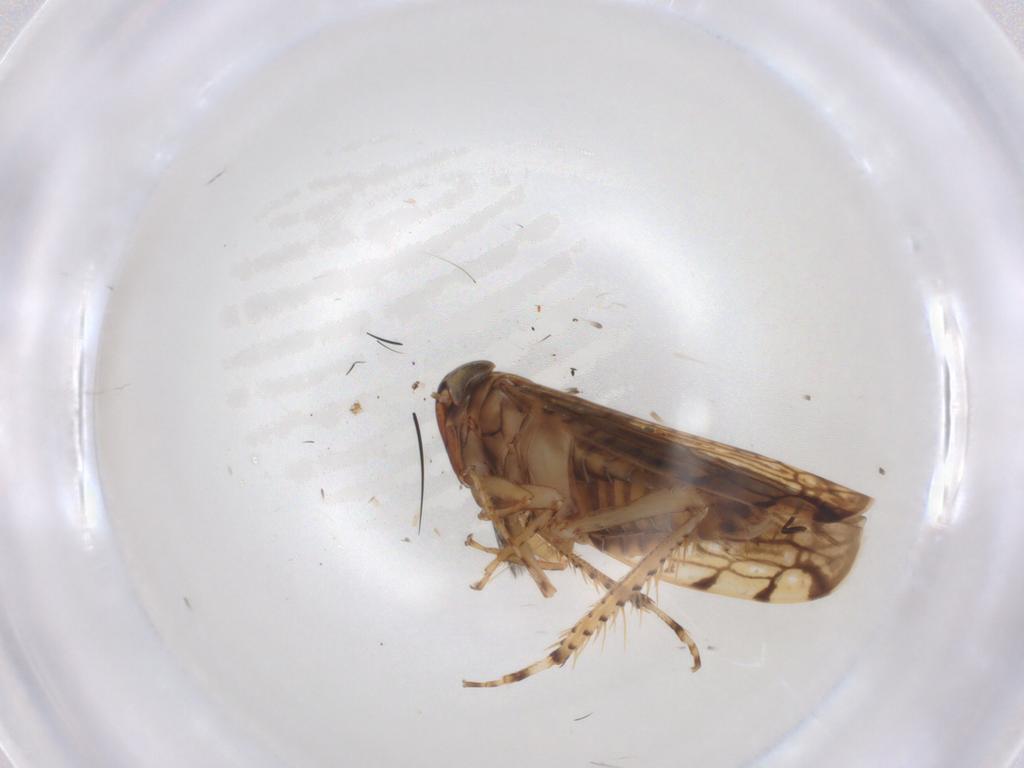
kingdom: Animalia
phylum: Arthropoda
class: Insecta
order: Hemiptera
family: Cicadellidae
